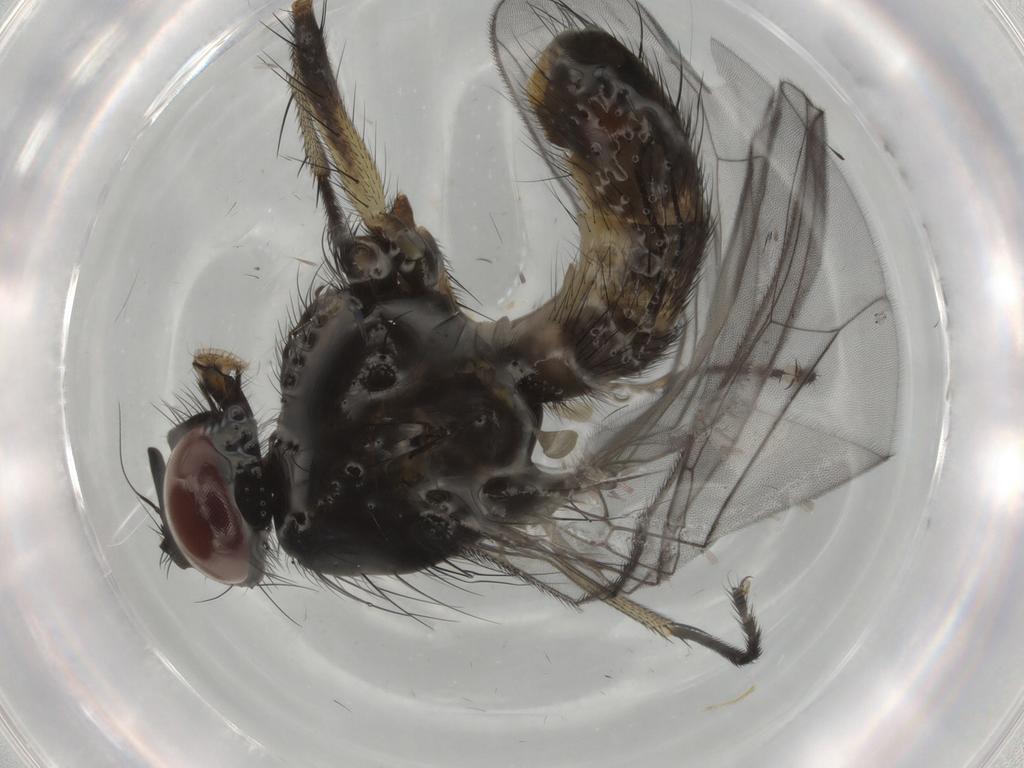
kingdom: Animalia
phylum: Arthropoda
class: Insecta
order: Diptera
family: Muscidae
